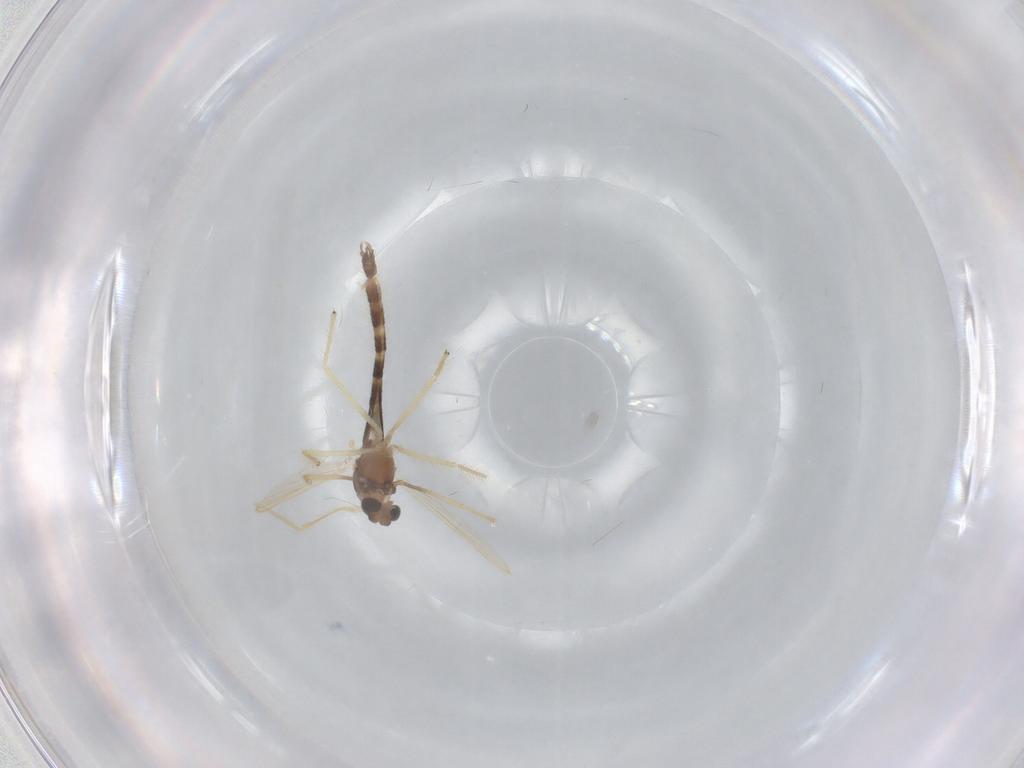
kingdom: Animalia
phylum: Arthropoda
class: Insecta
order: Diptera
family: Chironomidae
